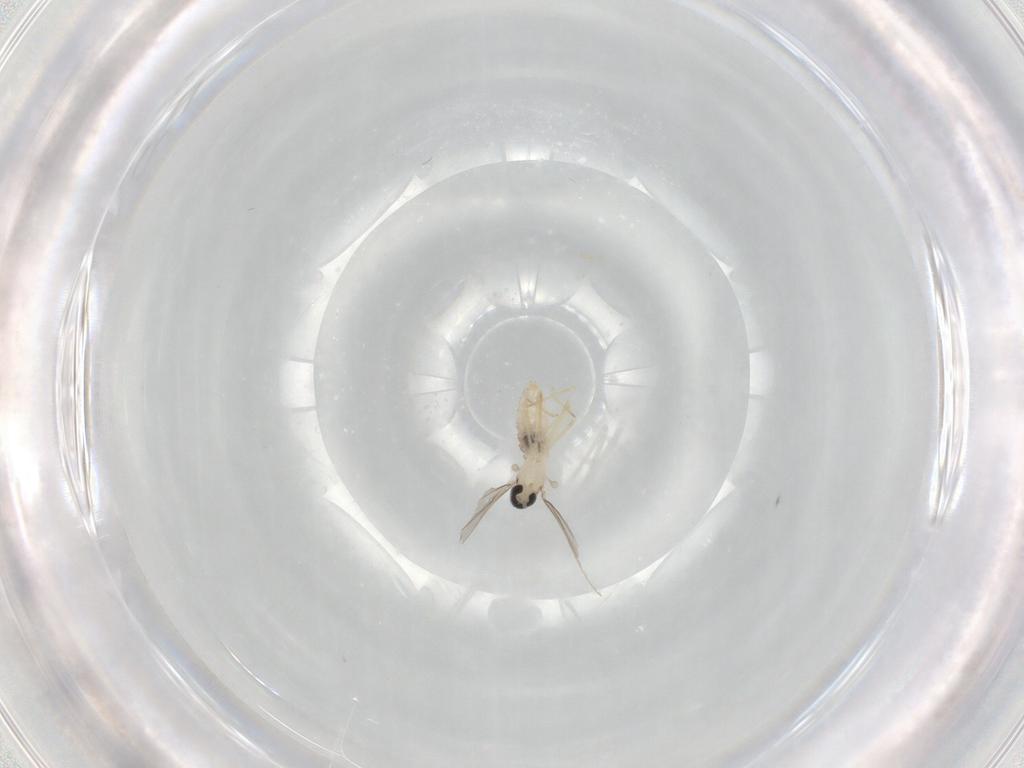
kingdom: Animalia
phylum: Arthropoda
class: Insecta
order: Diptera
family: Cecidomyiidae
